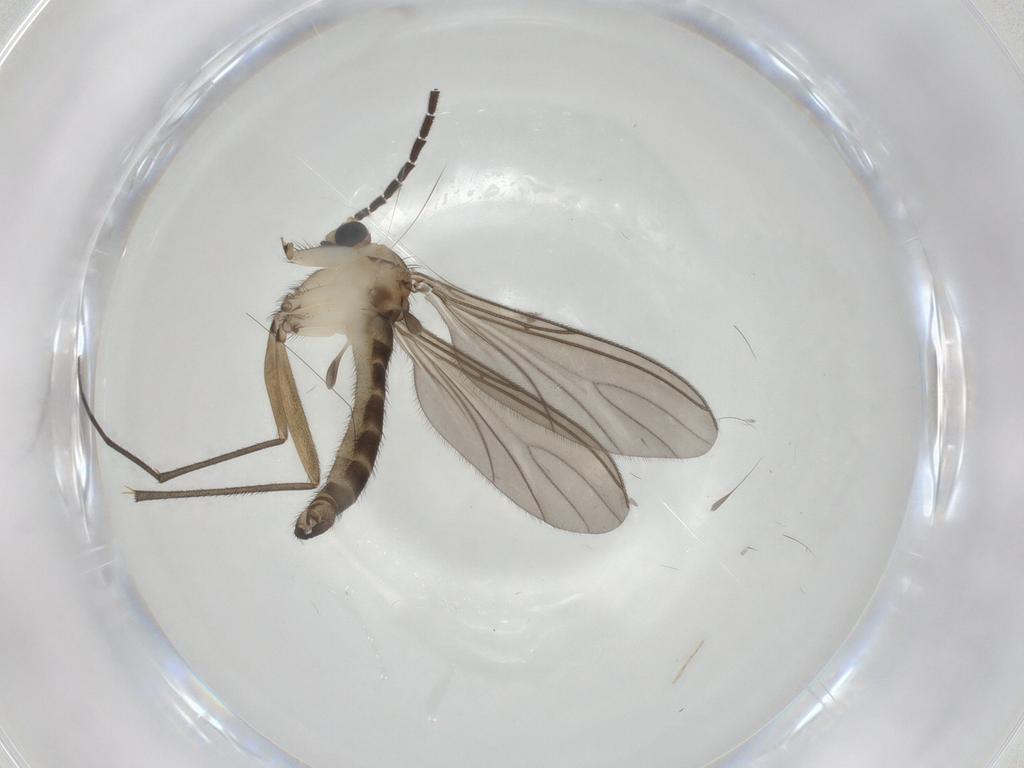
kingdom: Animalia
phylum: Arthropoda
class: Insecta
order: Diptera
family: Sciaridae
